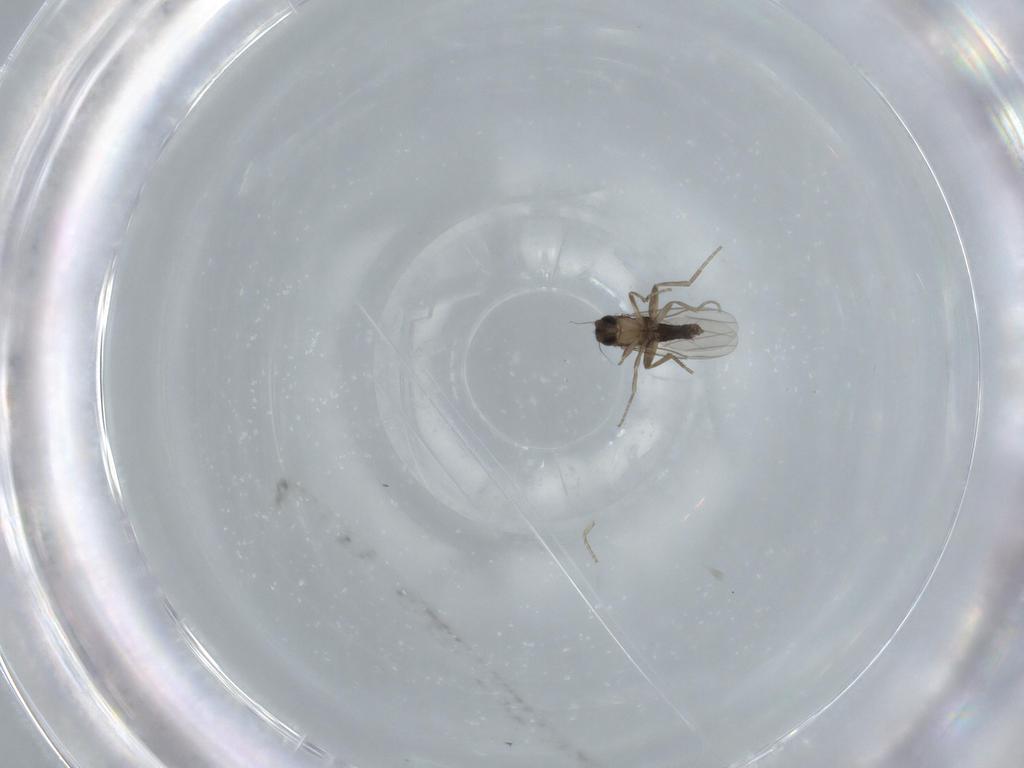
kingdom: Animalia
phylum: Arthropoda
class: Insecta
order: Diptera
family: Phoridae
